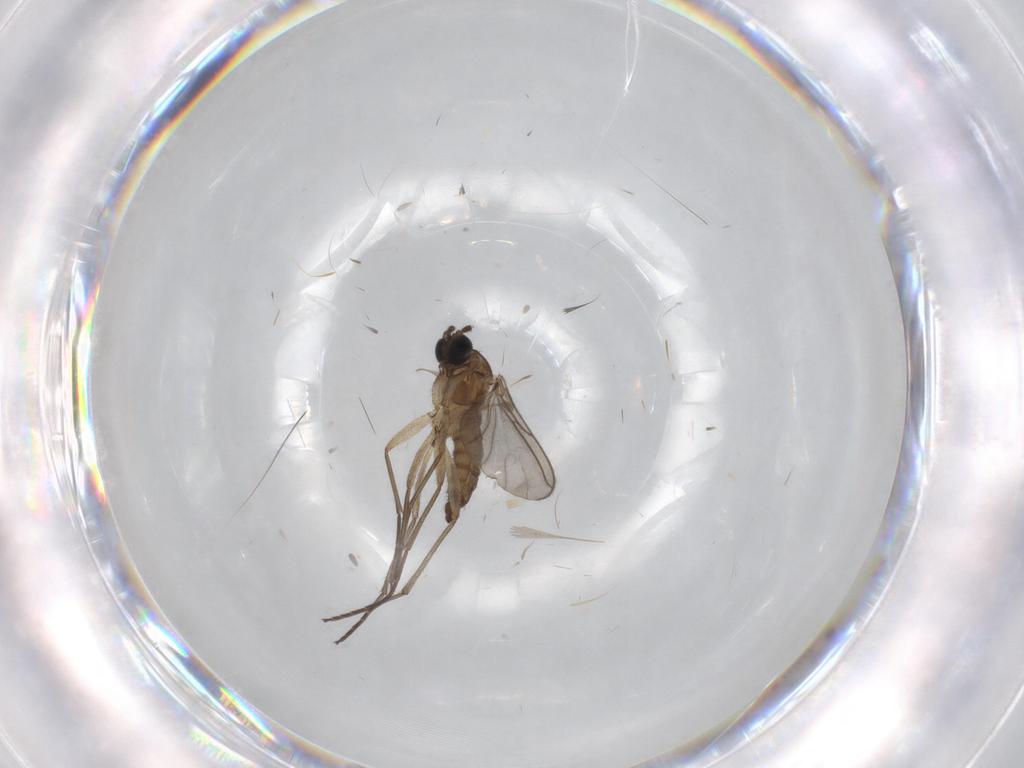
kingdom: Animalia
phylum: Arthropoda
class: Insecta
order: Diptera
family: Sciaridae
